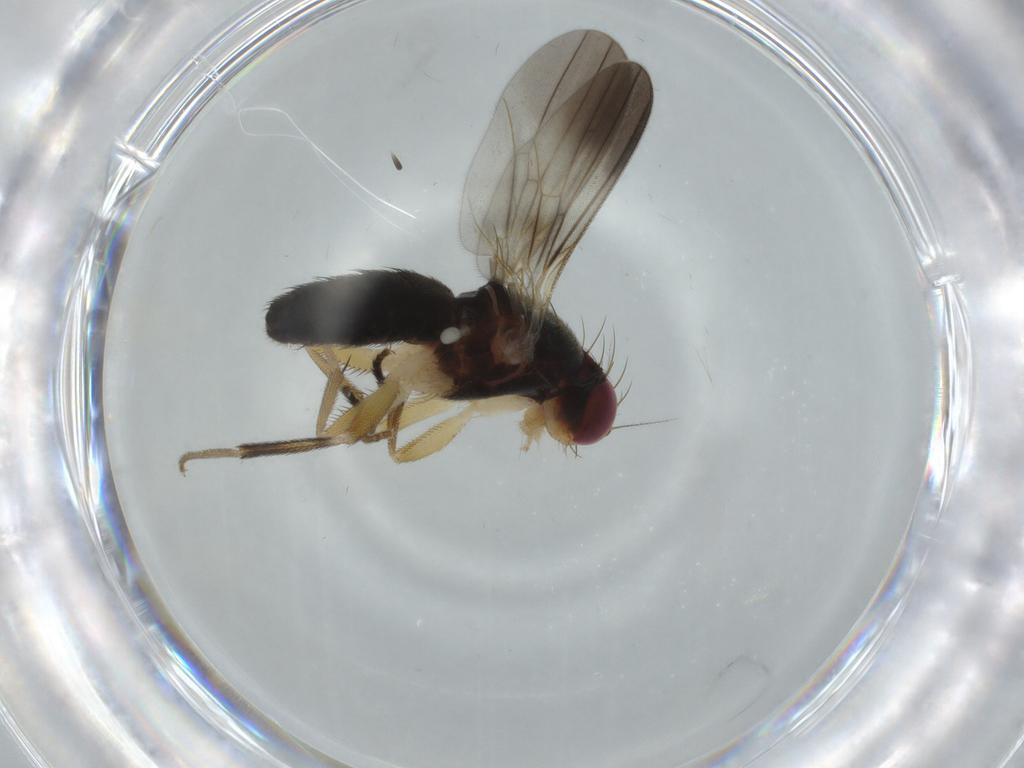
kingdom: Animalia
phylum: Arthropoda
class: Insecta
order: Diptera
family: Clusiidae
